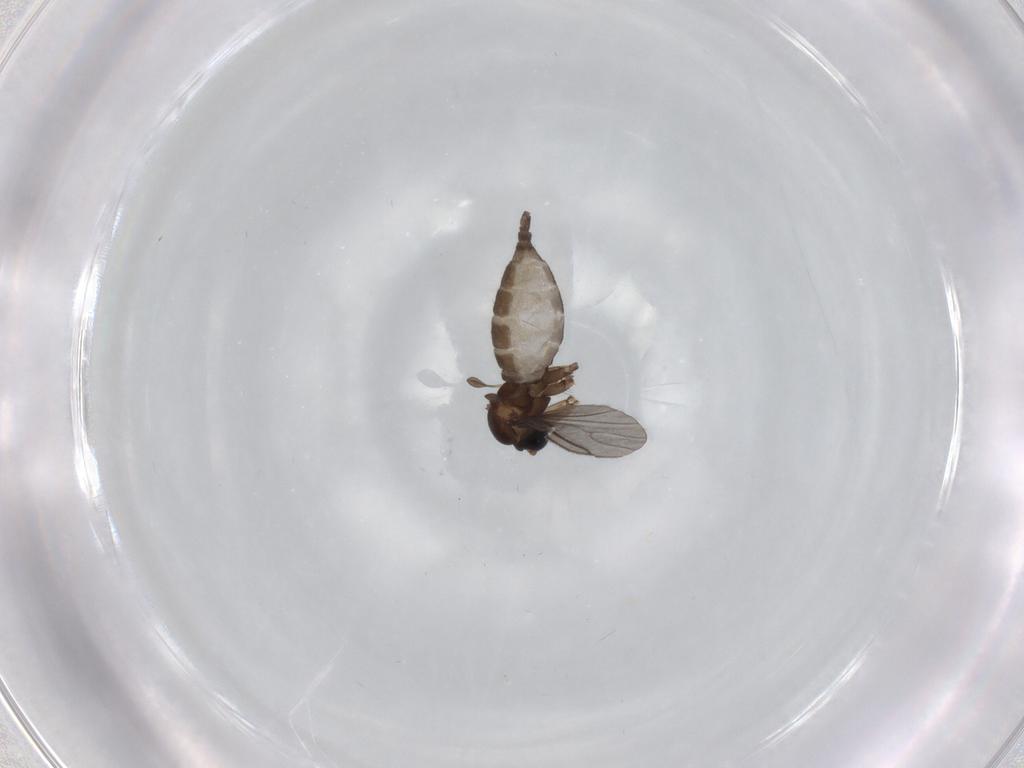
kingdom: Animalia
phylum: Arthropoda
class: Insecta
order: Diptera
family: Sciaridae
